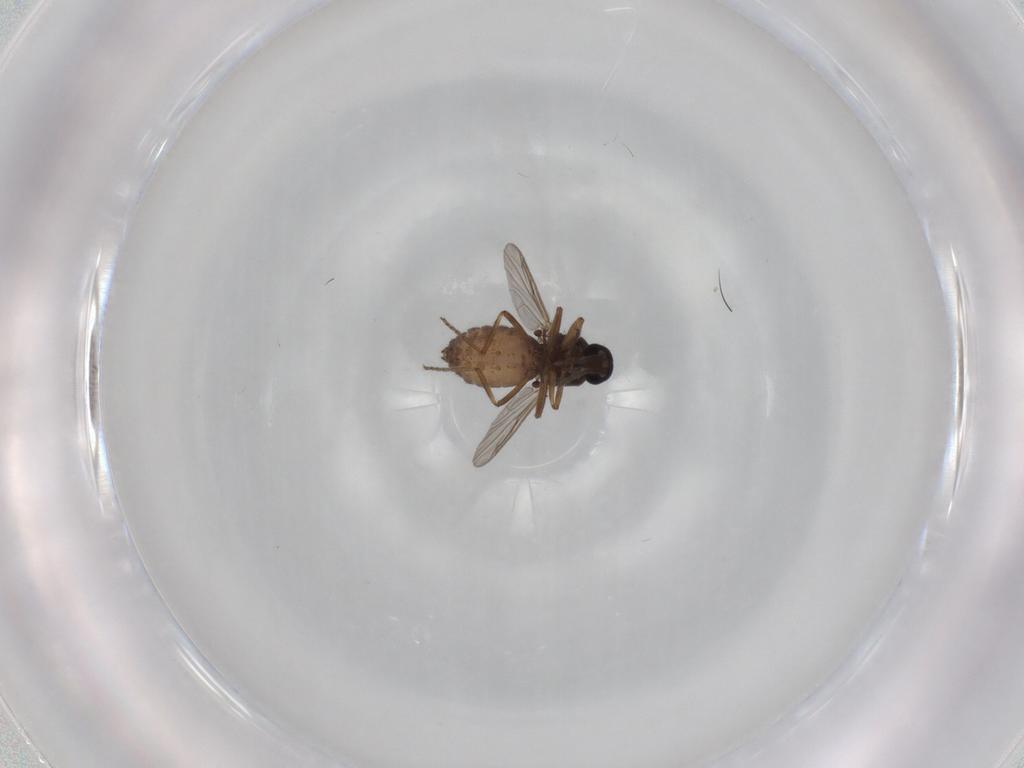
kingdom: Animalia
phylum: Arthropoda
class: Insecta
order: Diptera
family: Ceratopogonidae
